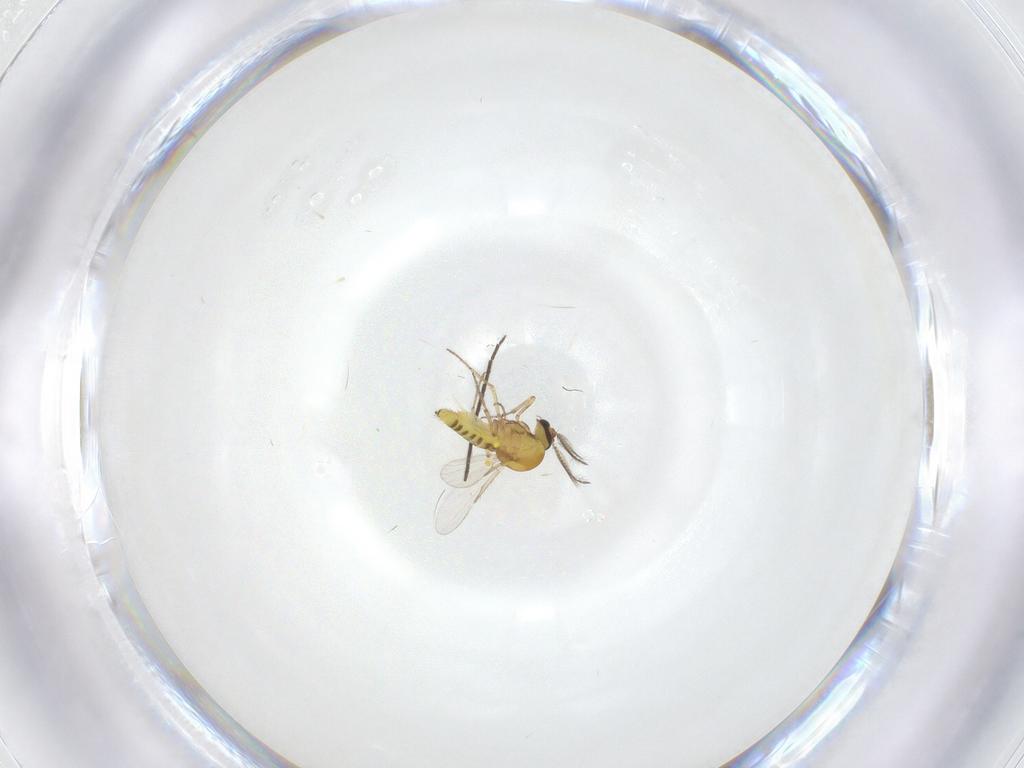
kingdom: Animalia
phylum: Arthropoda
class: Insecta
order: Diptera
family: Ceratopogonidae
